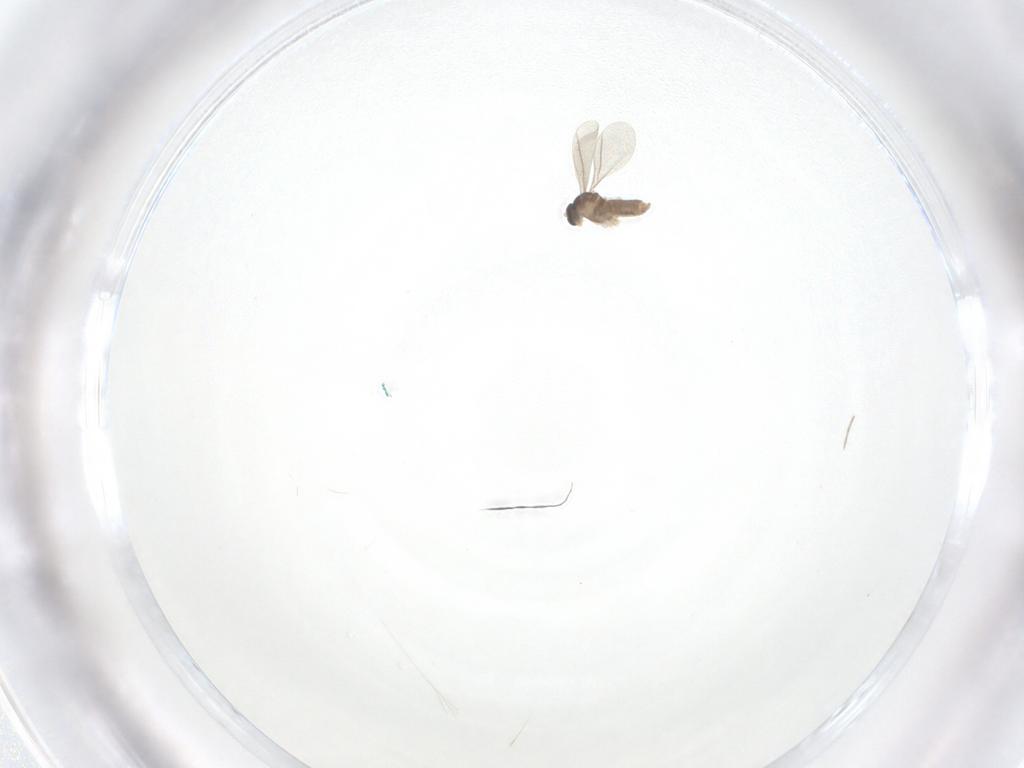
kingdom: Animalia
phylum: Arthropoda
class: Insecta
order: Diptera
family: Cecidomyiidae
